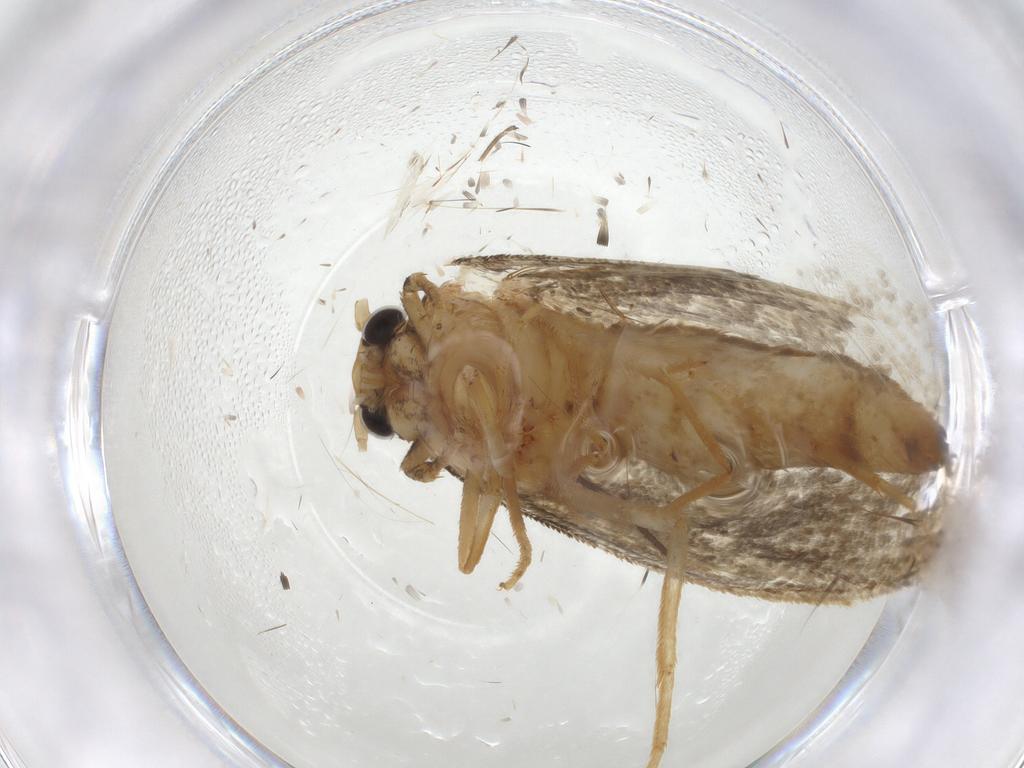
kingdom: Animalia
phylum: Arthropoda
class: Insecta
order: Lepidoptera
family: Tineidae
